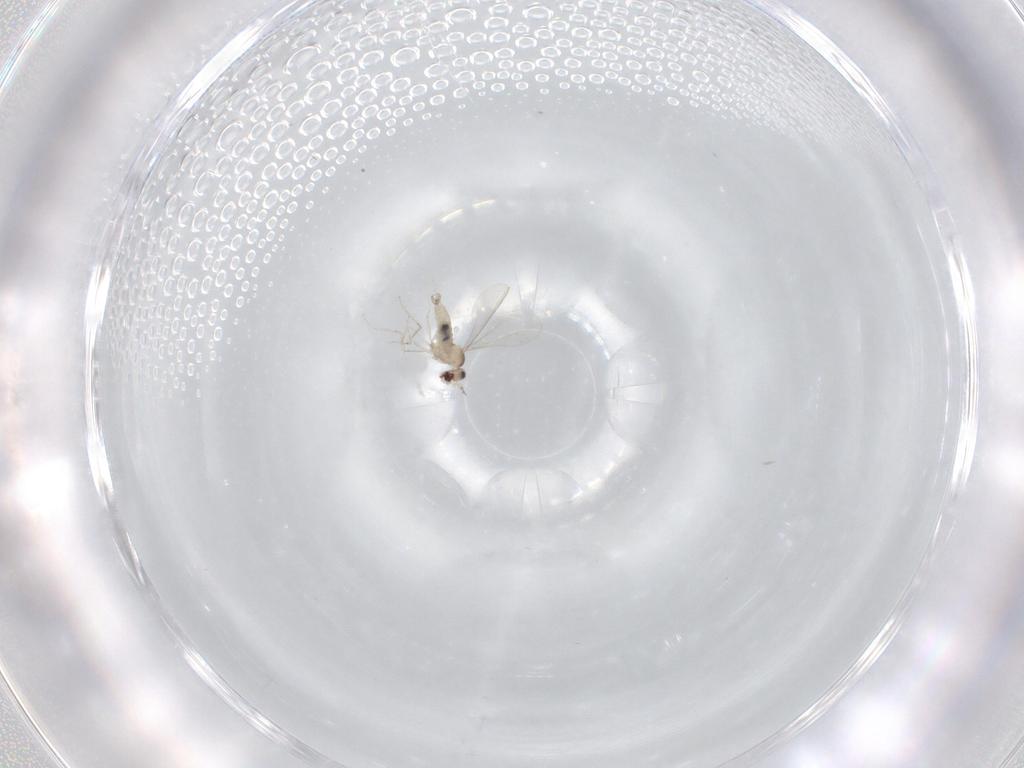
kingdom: Animalia
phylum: Arthropoda
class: Insecta
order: Diptera
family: Cecidomyiidae
